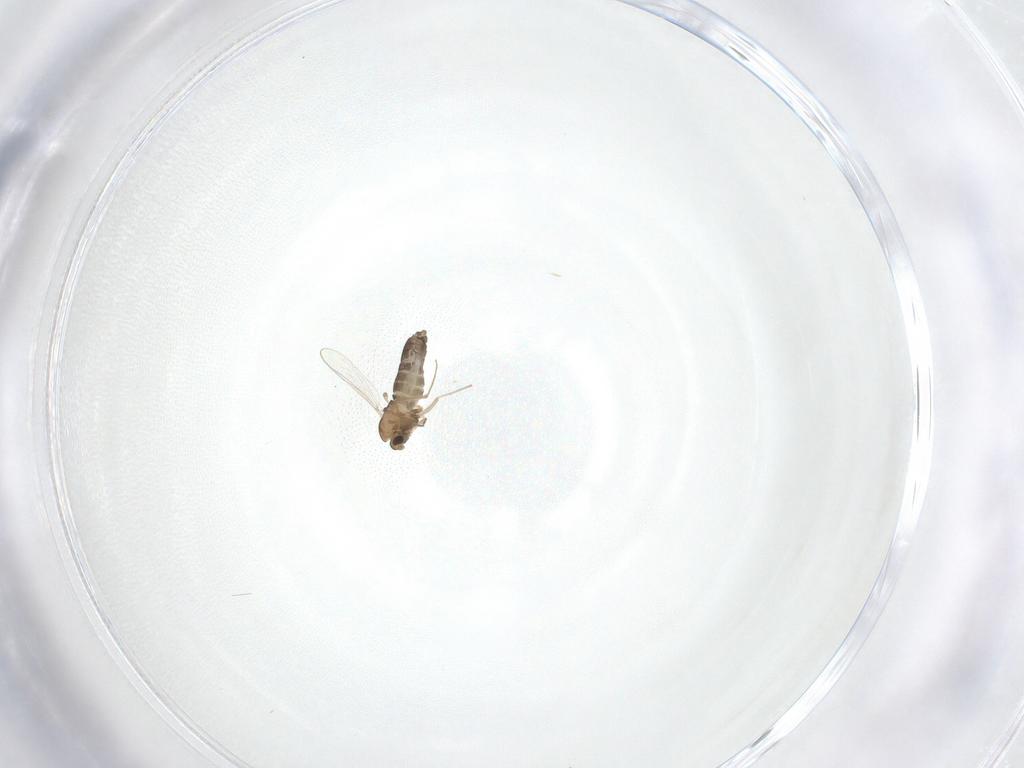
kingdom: Animalia
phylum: Arthropoda
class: Insecta
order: Diptera
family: Chironomidae
